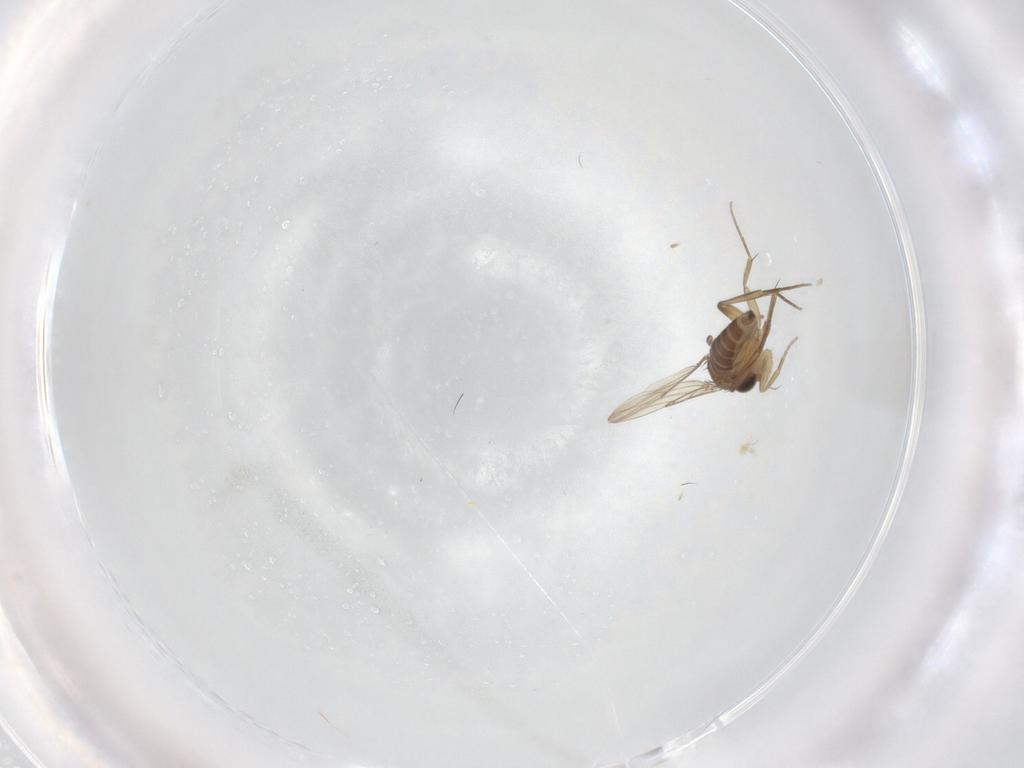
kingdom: Animalia
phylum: Arthropoda
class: Insecta
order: Diptera
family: Phoridae
